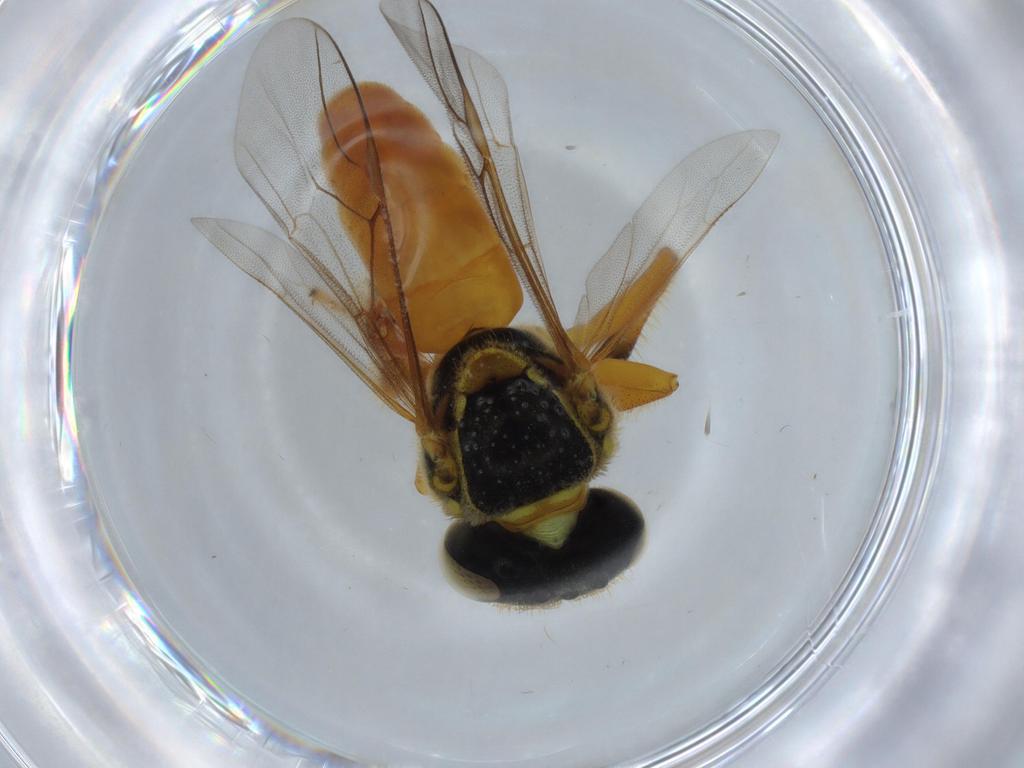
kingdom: Animalia
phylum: Arthropoda
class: Insecta
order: Hymenoptera
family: Apidae
